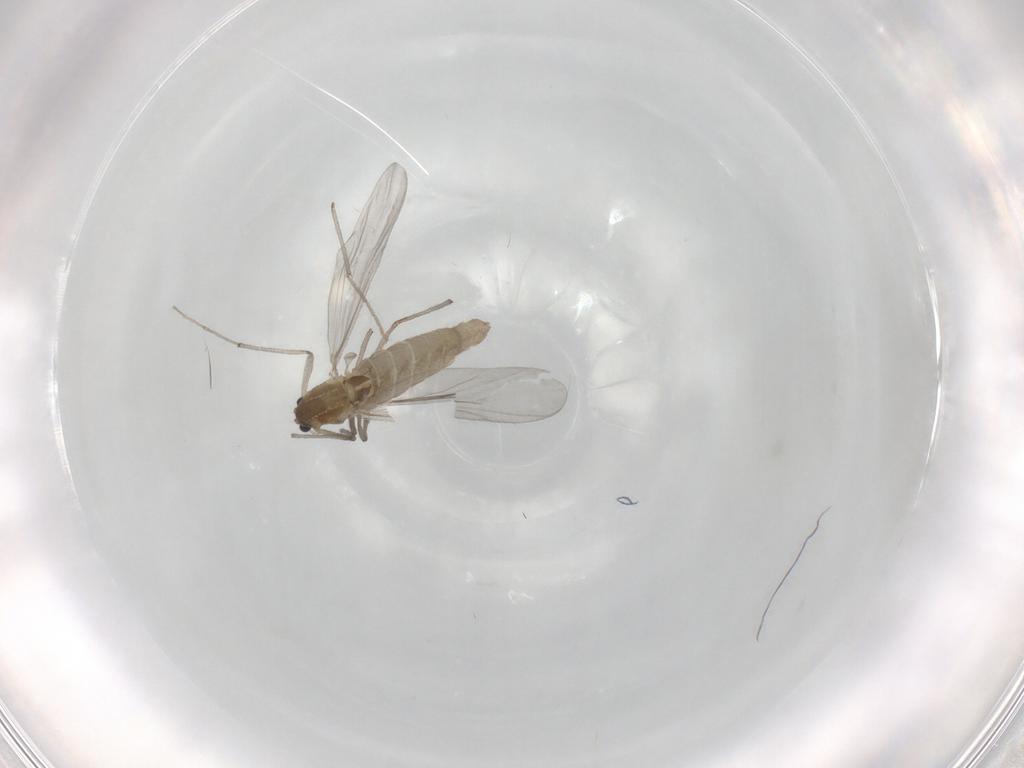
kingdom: Animalia
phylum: Arthropoda
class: Insecta
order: Diptera
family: Chironomidae
